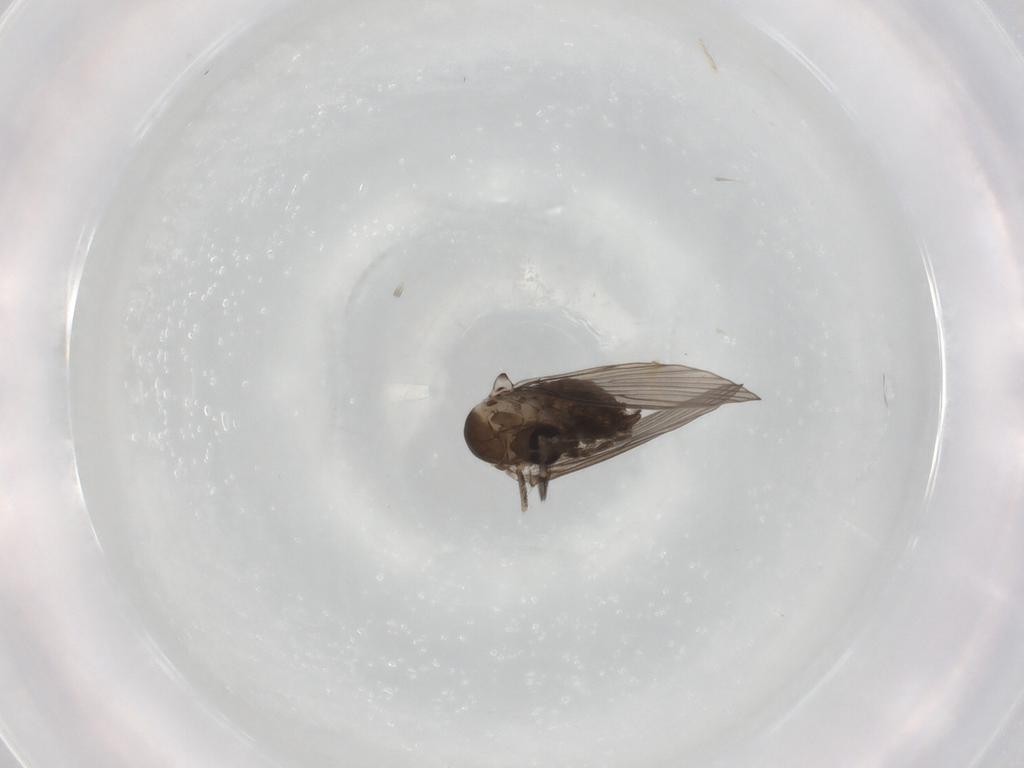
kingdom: Animalia
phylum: Arthropoda
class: Insecta
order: Diptera
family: Psychodidae
